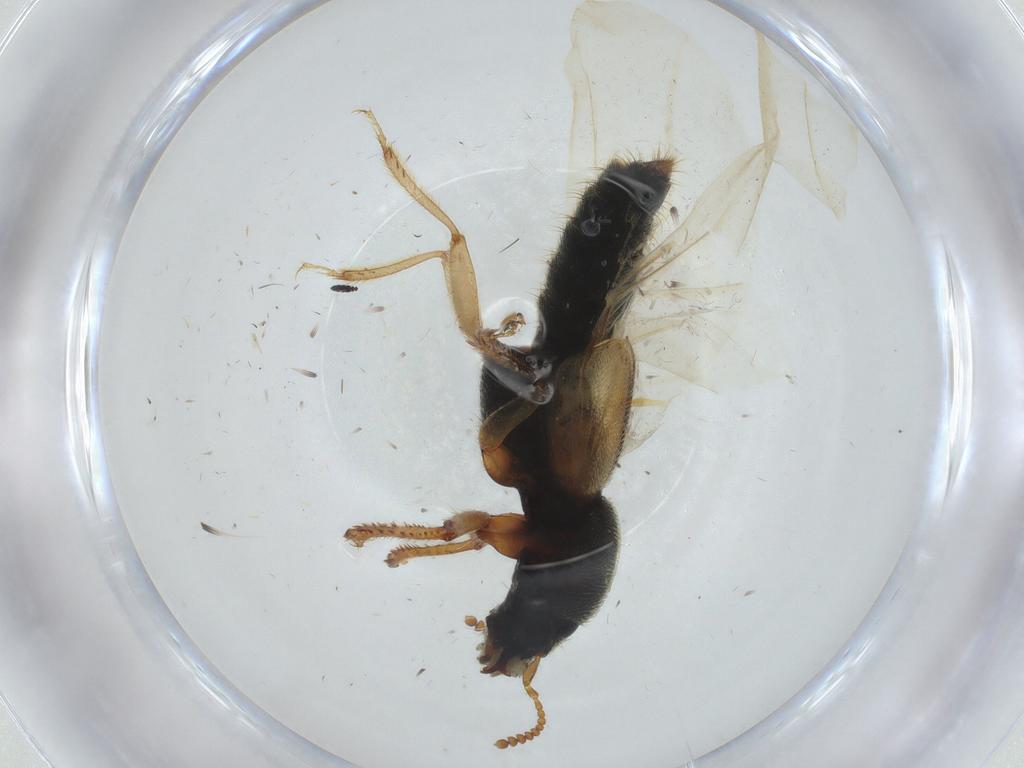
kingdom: Animalia
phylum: Arthropoda
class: Insecta
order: Coleoptera
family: Staphylinidae
